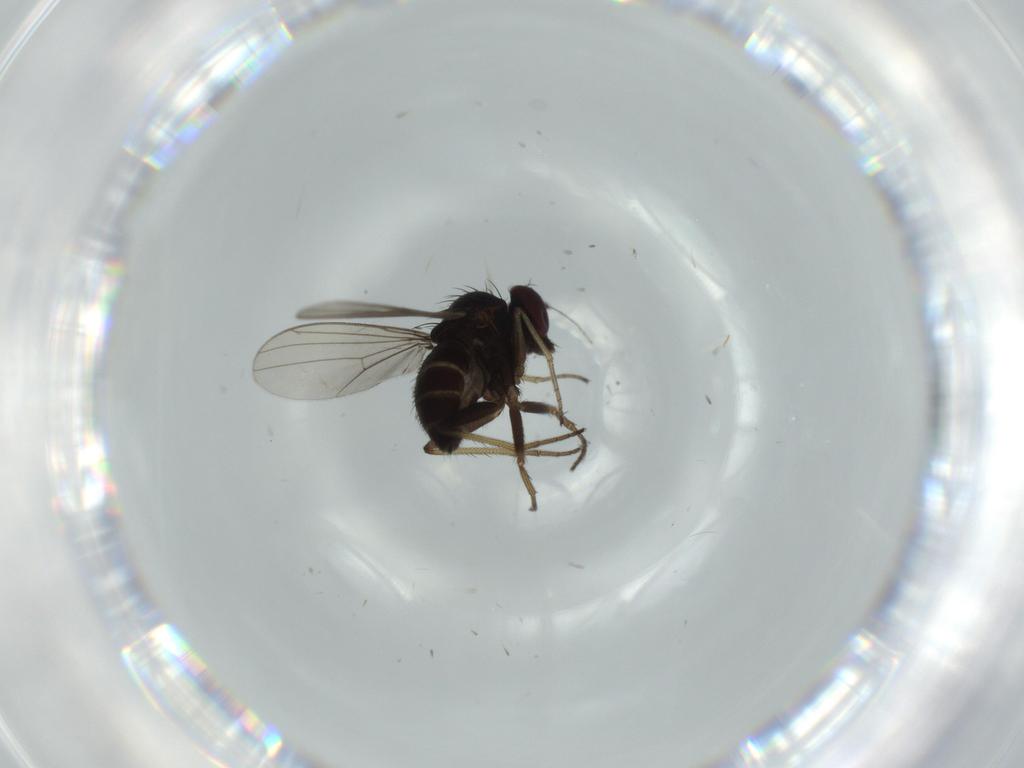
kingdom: Animalia
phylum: Arthropoda
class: Insecta
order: Diptera
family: Dolichopodidae
